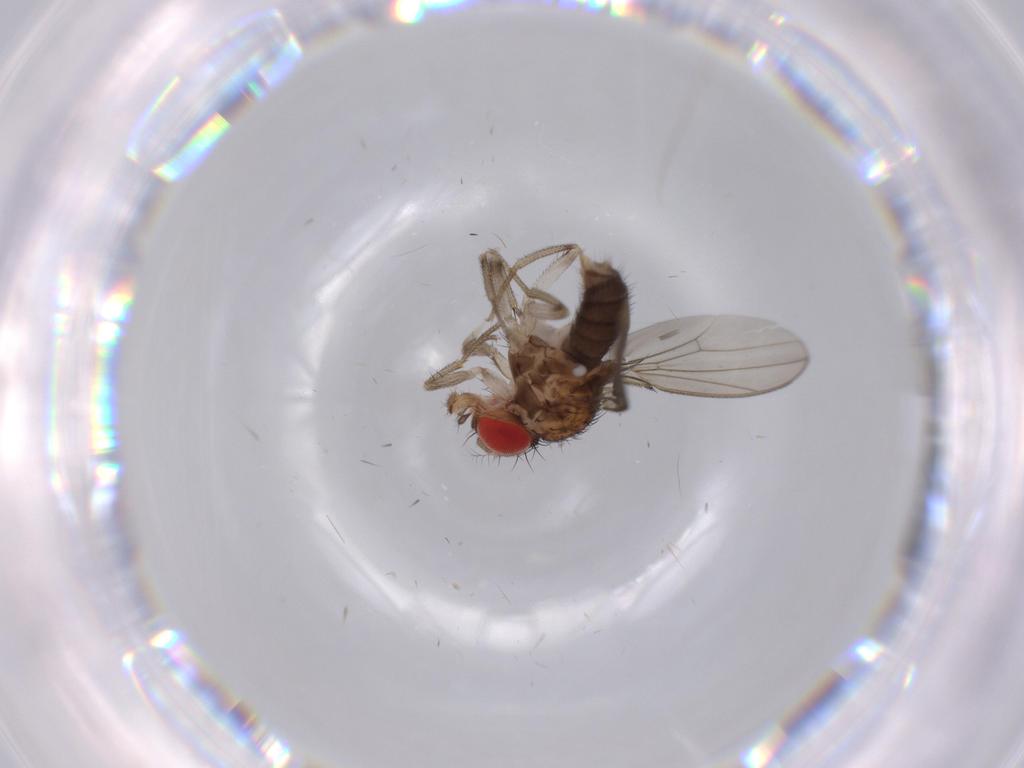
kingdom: Animalia
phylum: Arthropoda
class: Insecta
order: Diptera
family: Drosophilidae
